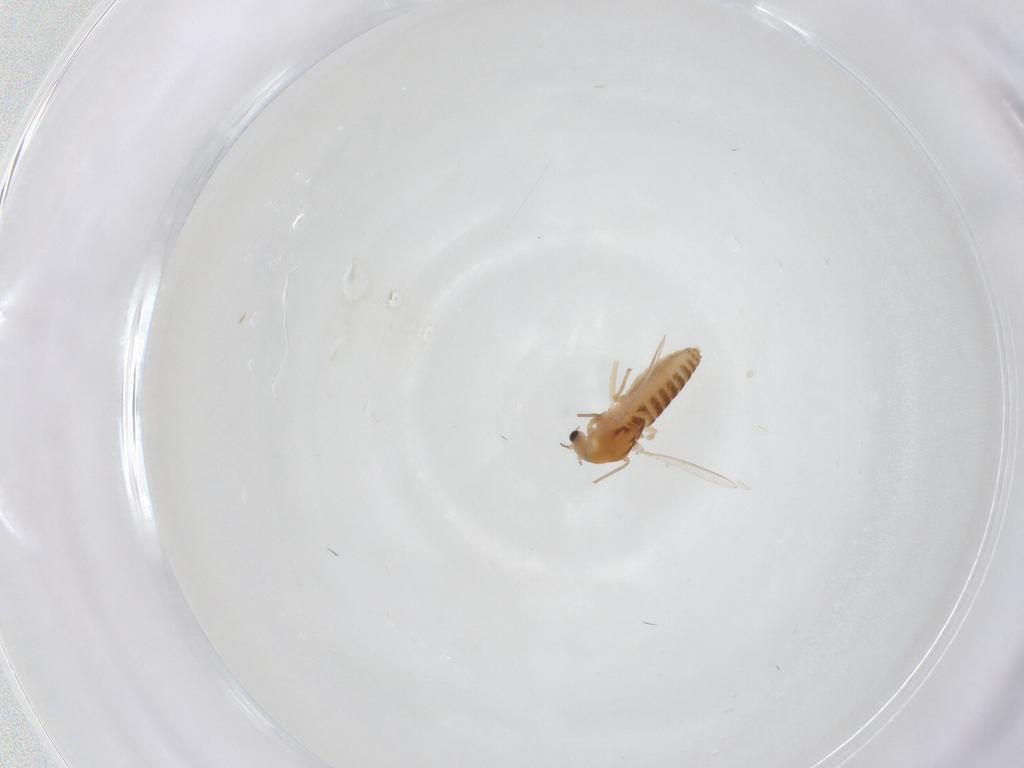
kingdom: Animalia
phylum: Arthropoda
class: Insecta
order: Diptera
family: Chironomidae
